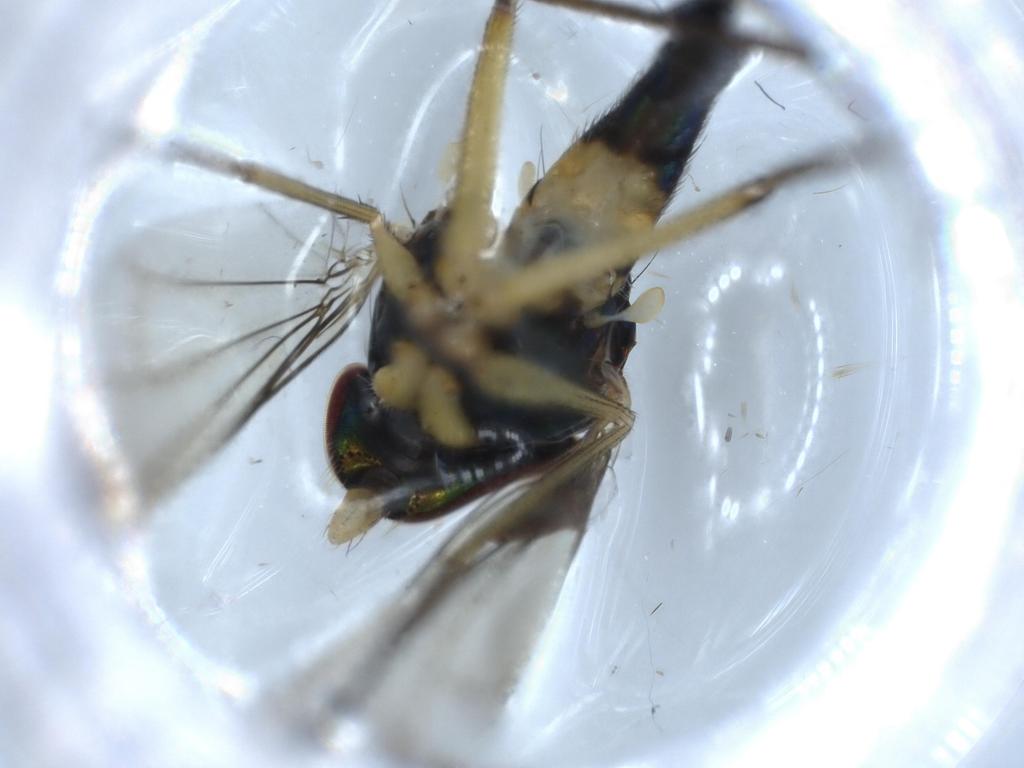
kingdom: Animalia
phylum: Arthropoda
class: Insecta
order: Diptera
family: Dolichopodidae
